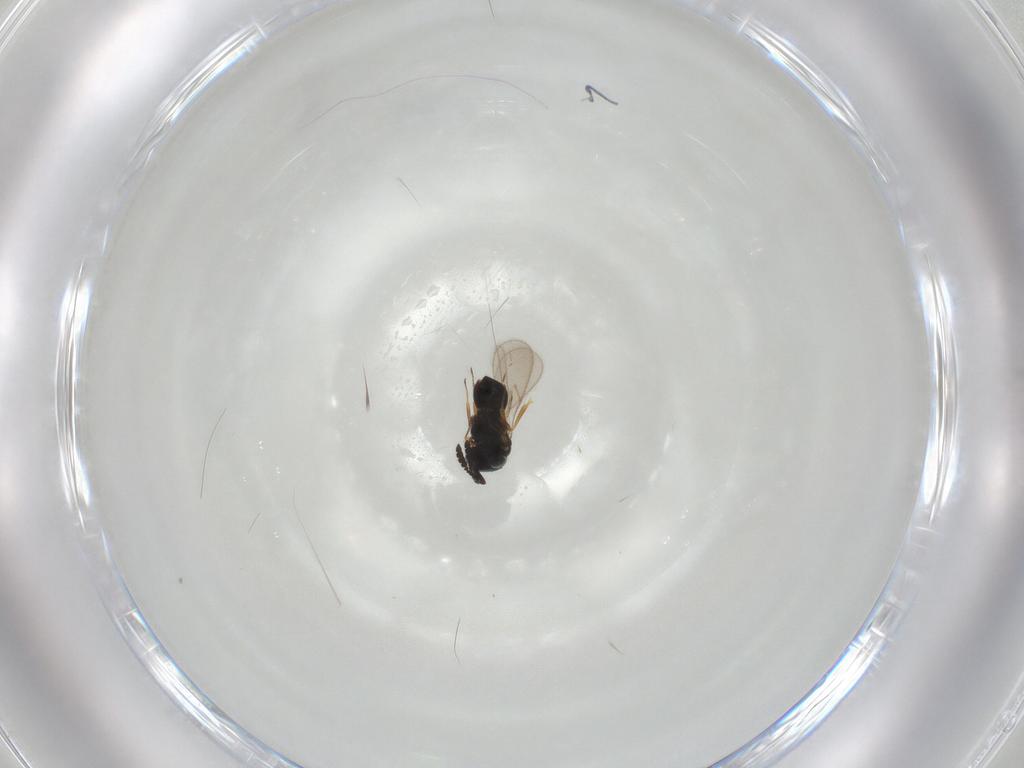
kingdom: Animalia
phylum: Arthropoda
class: Insecta
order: Hymenoptera
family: Scelionidae
